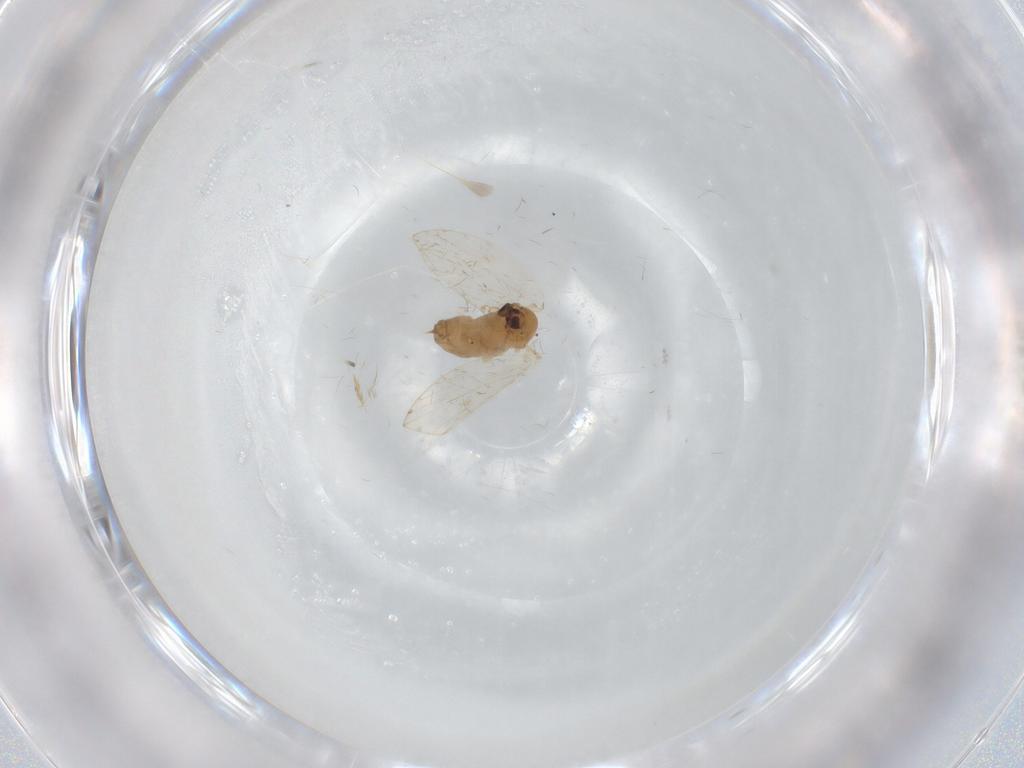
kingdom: Animalia
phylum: Arthropoda
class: Insecta
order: Diptera
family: Psychodidae
